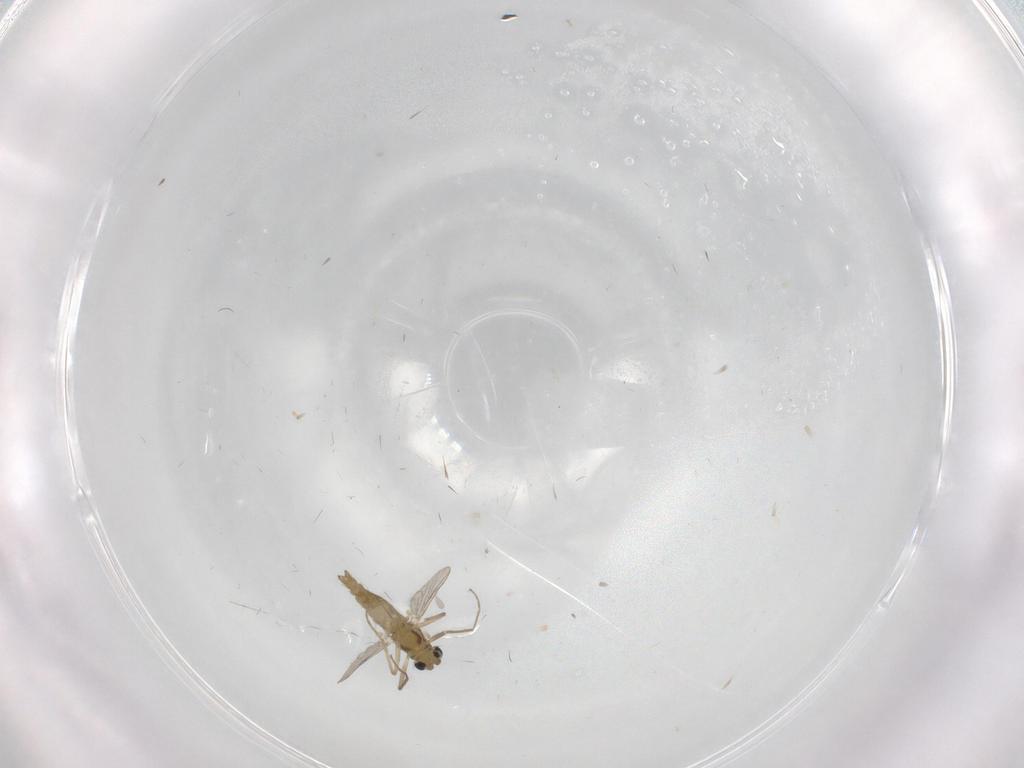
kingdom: Animalia
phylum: Arthropoda
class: Insecta
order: Diptera
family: Chironomidae
